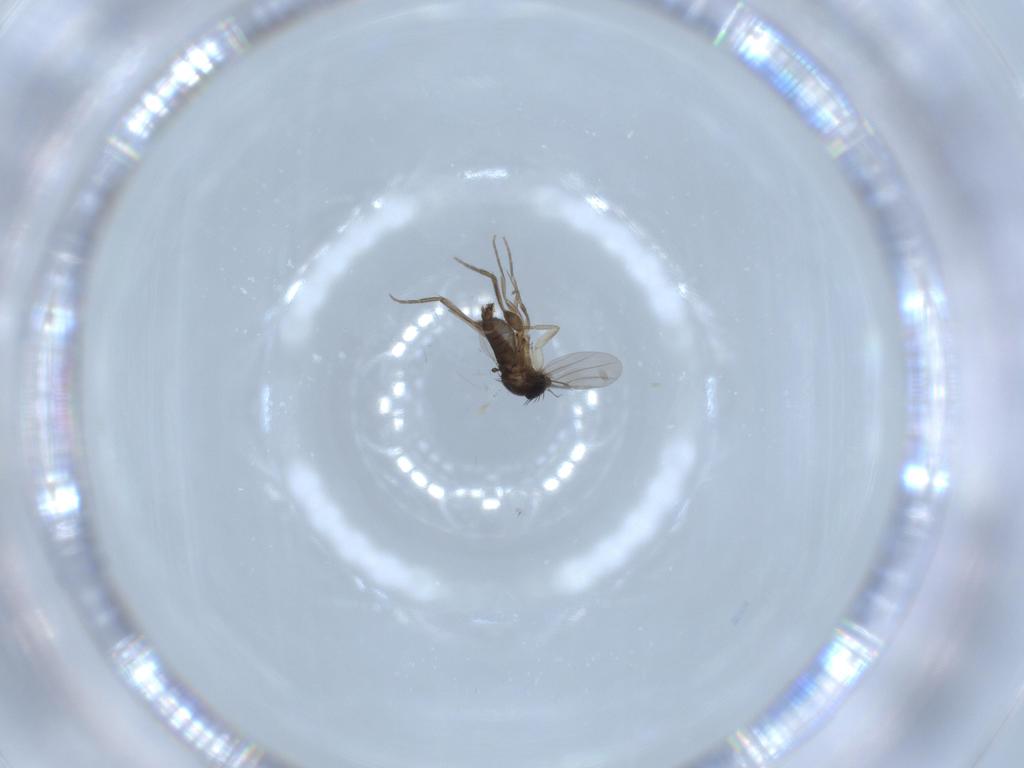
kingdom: Animalia
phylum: Arthropoda
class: Insecta
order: Diptera
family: Phoridae
